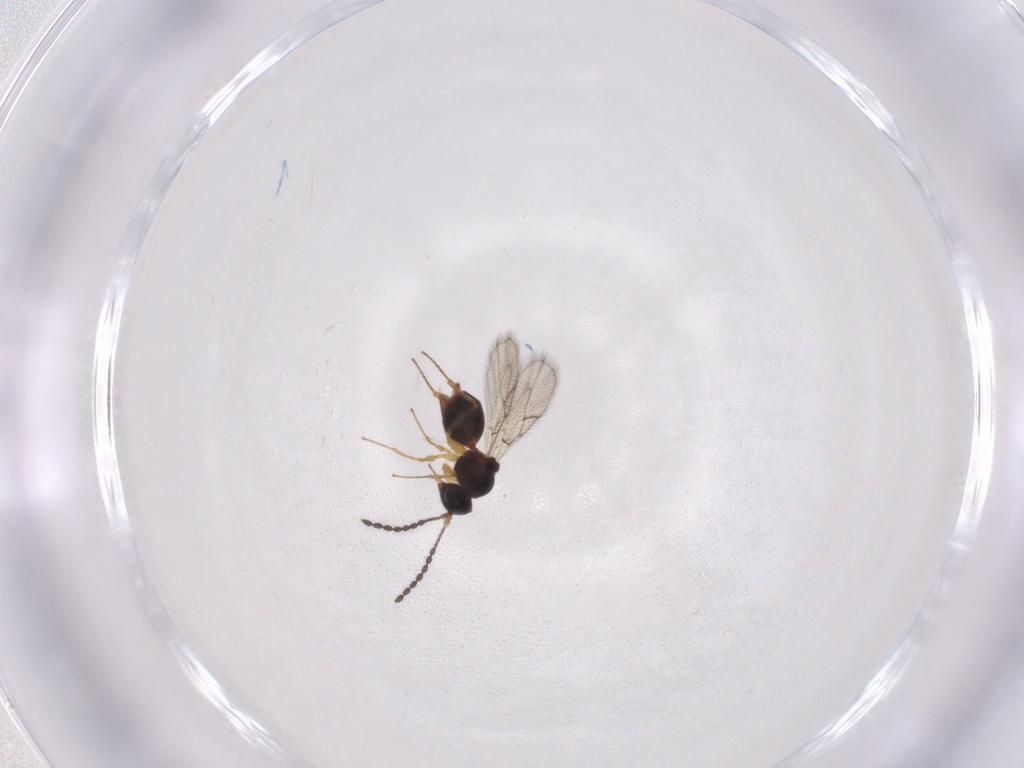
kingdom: Animalia
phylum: Arthropoda
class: Insecta
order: Hymenoptera
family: Figitidae
